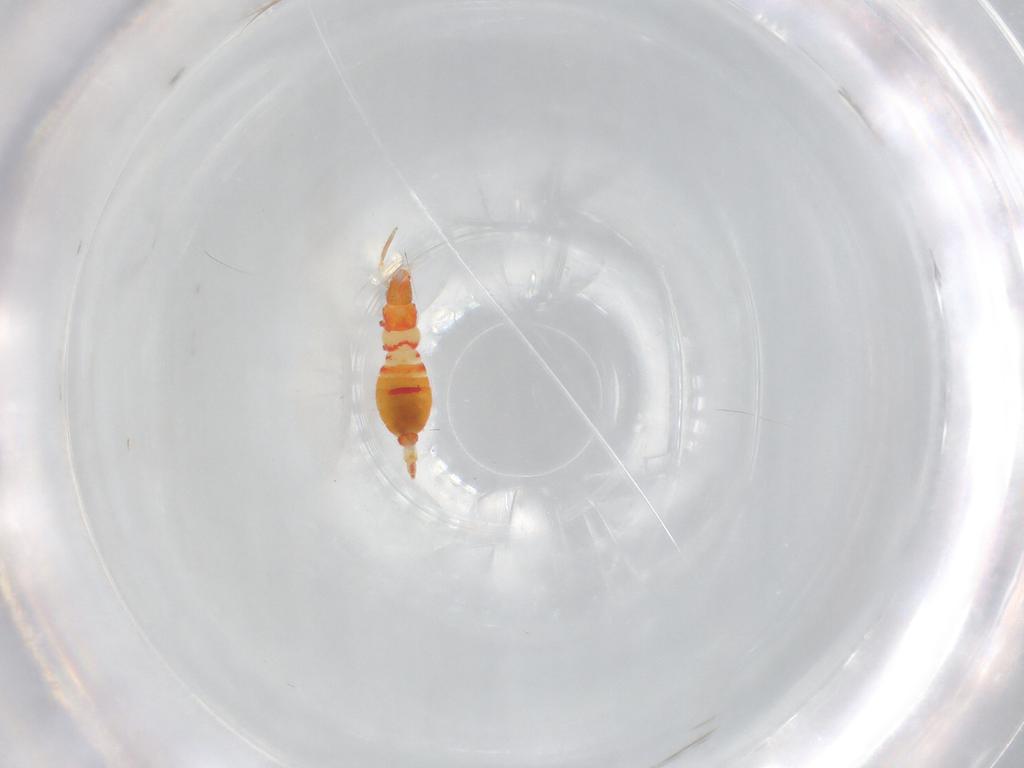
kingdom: Animalia
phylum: Arthropoda
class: Insecta
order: Thysanoptera
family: Aeolothripidae
